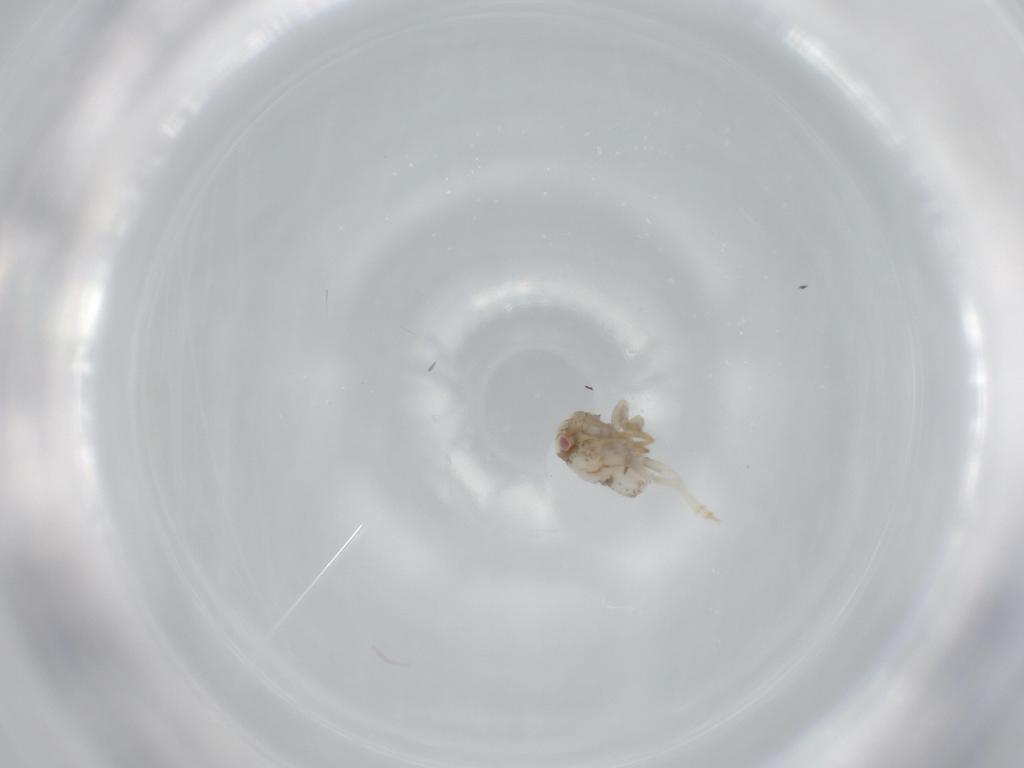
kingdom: Animalia
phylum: Arthropoda
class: Insecta
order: Hemiptera
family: Acanaloniidae
